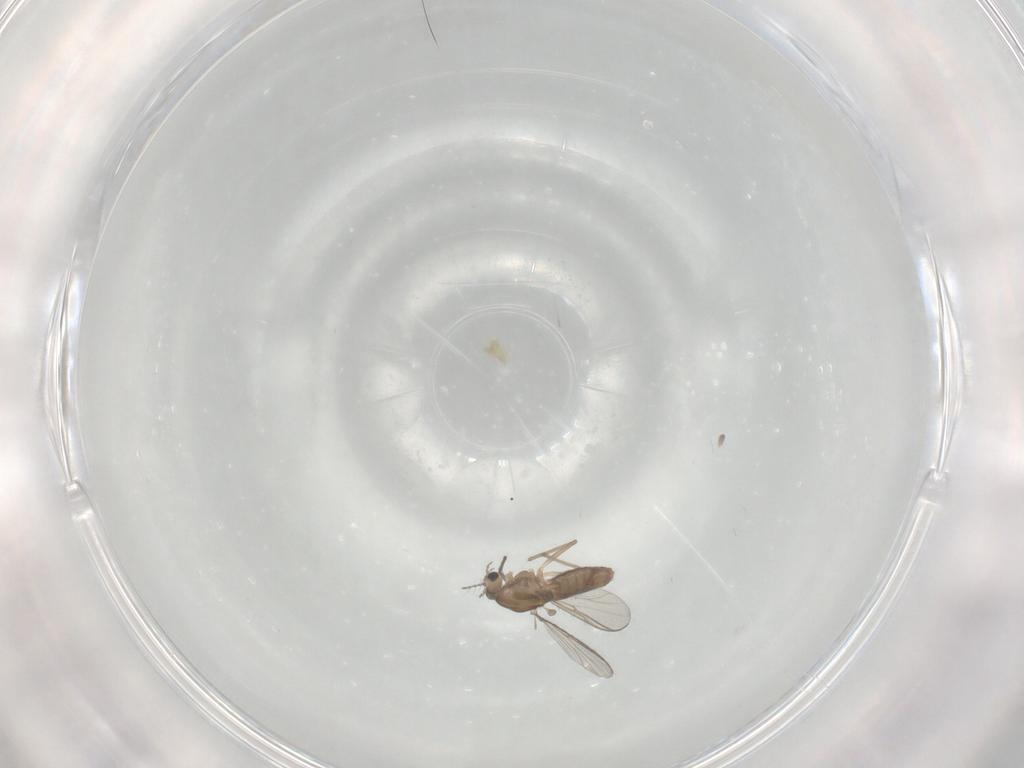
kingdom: Animalia
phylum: Arthropoda
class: Insecta
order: Diptera
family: Chironomidae
